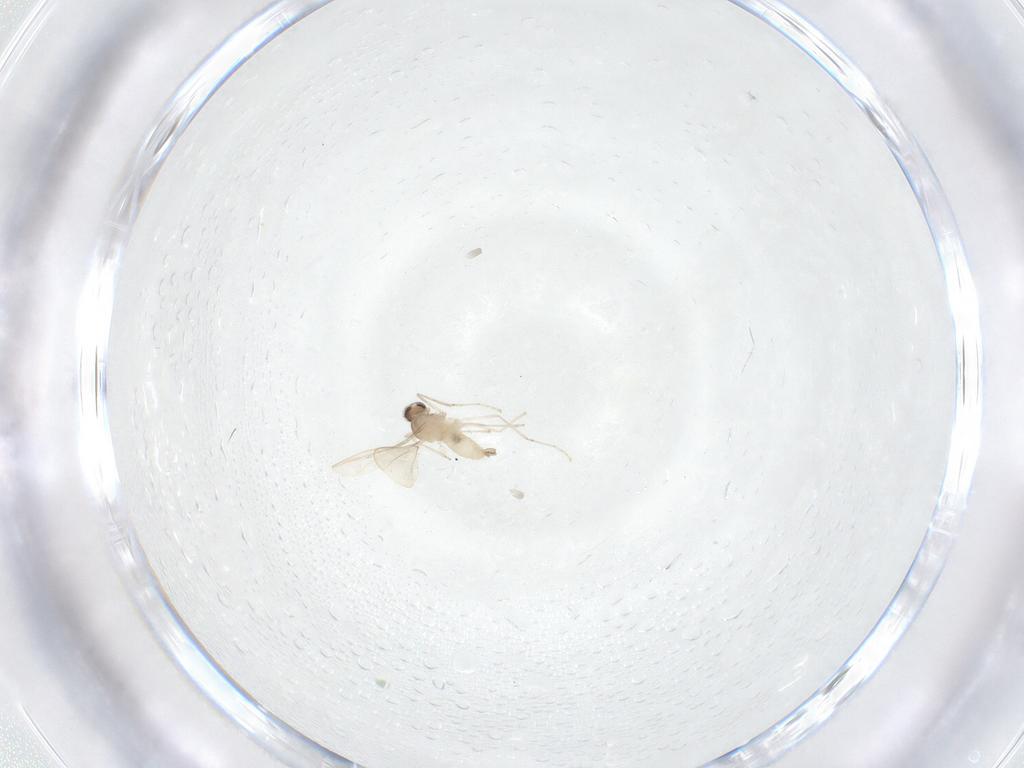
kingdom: Animalia
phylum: Arthropoda
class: Insecta
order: Diptera
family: Cecidomyiidae
